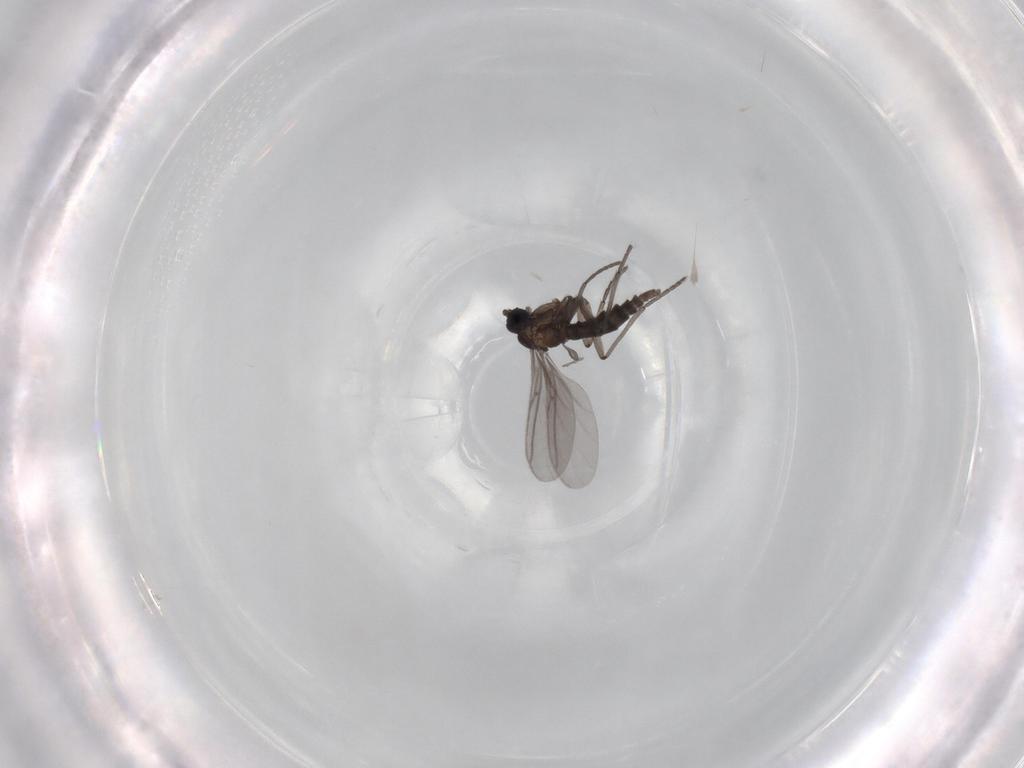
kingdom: Animalia
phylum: Arthropoda
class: Insecta
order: Diptera
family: Sciaridae
